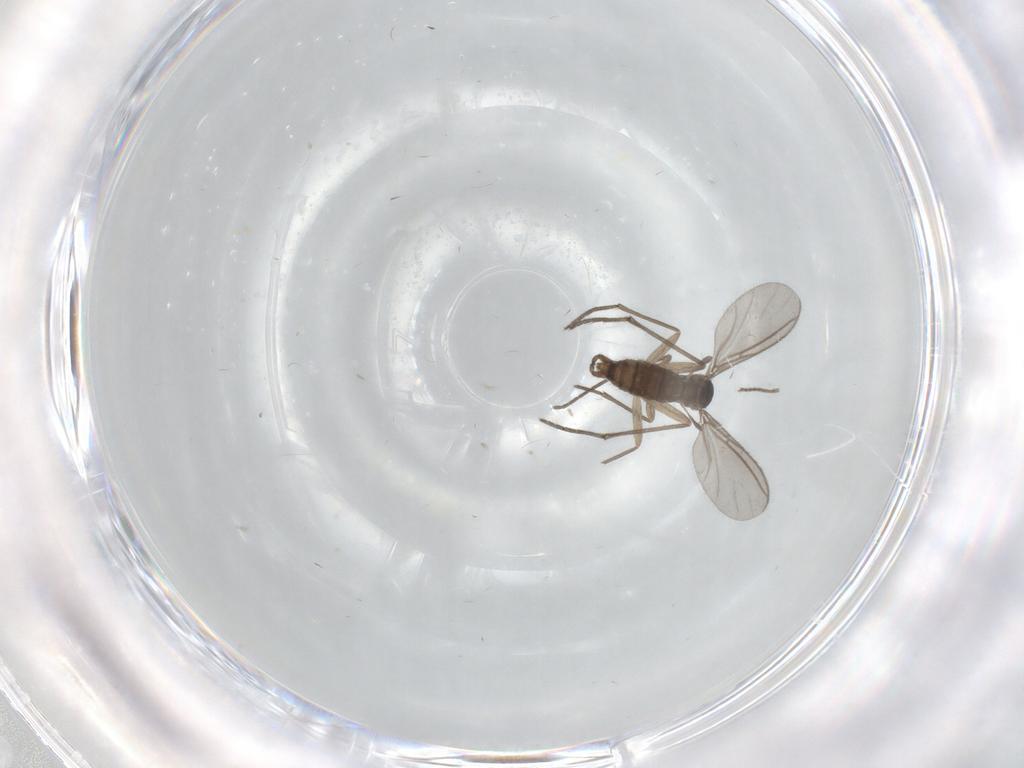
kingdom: Animalia
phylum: Arthropoda
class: Insecta
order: Diptera
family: Sciaridae
